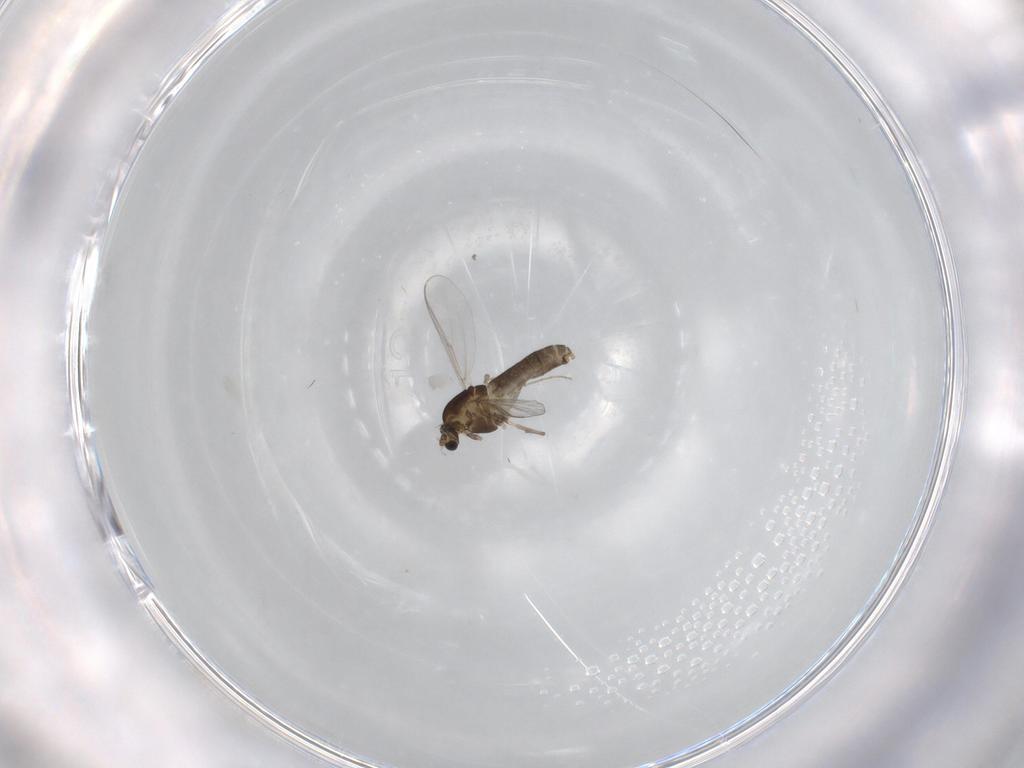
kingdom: Animalia
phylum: Arthropoda
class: Insecta
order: Diptera
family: Chironomidae
